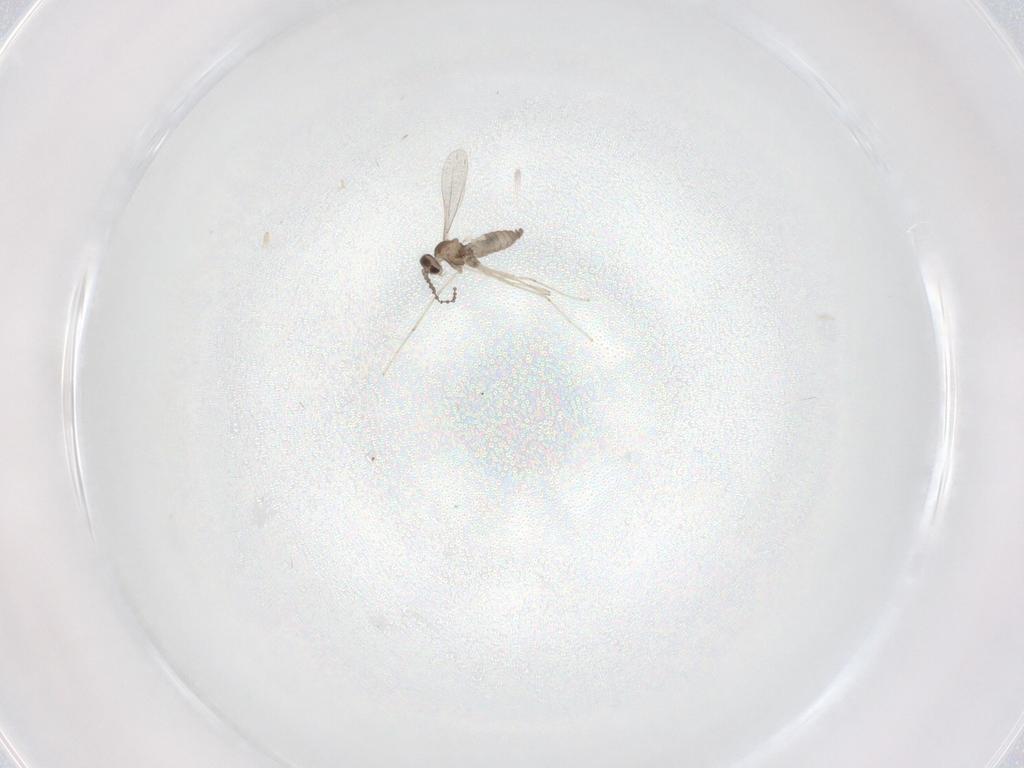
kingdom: Animalia
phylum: Arthropoda
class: Insecta
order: Diptera
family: Cecidomyiidae
